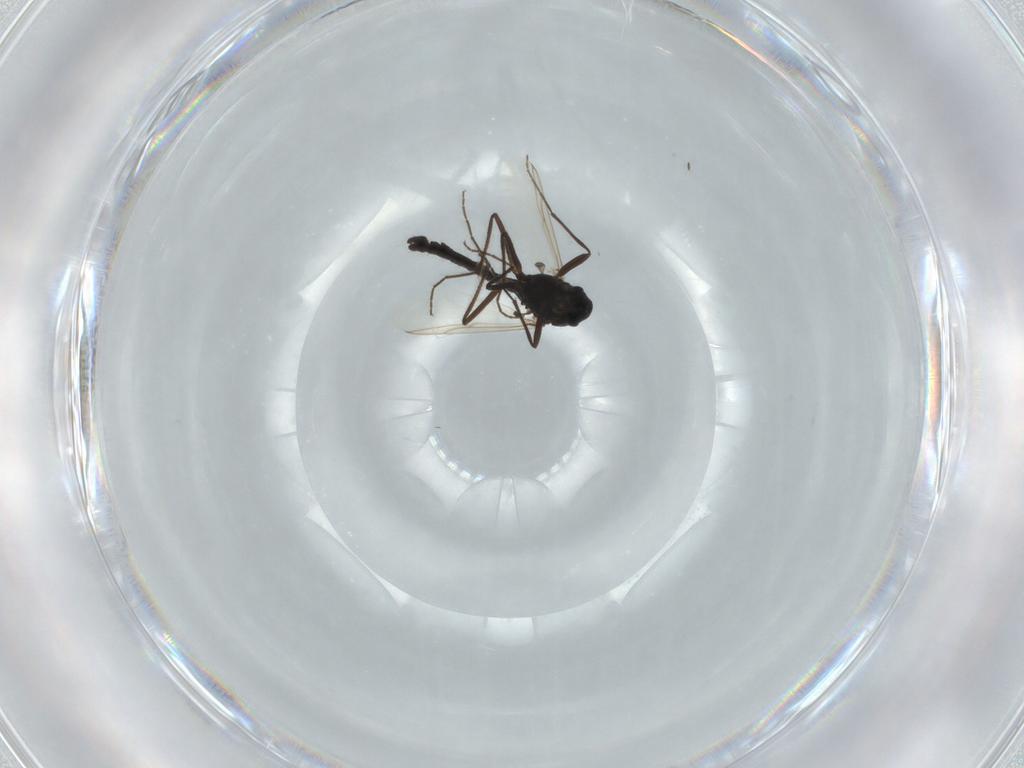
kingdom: Animalia
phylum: Arthropoda
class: Insecta
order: Diptera
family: Chironomidae
